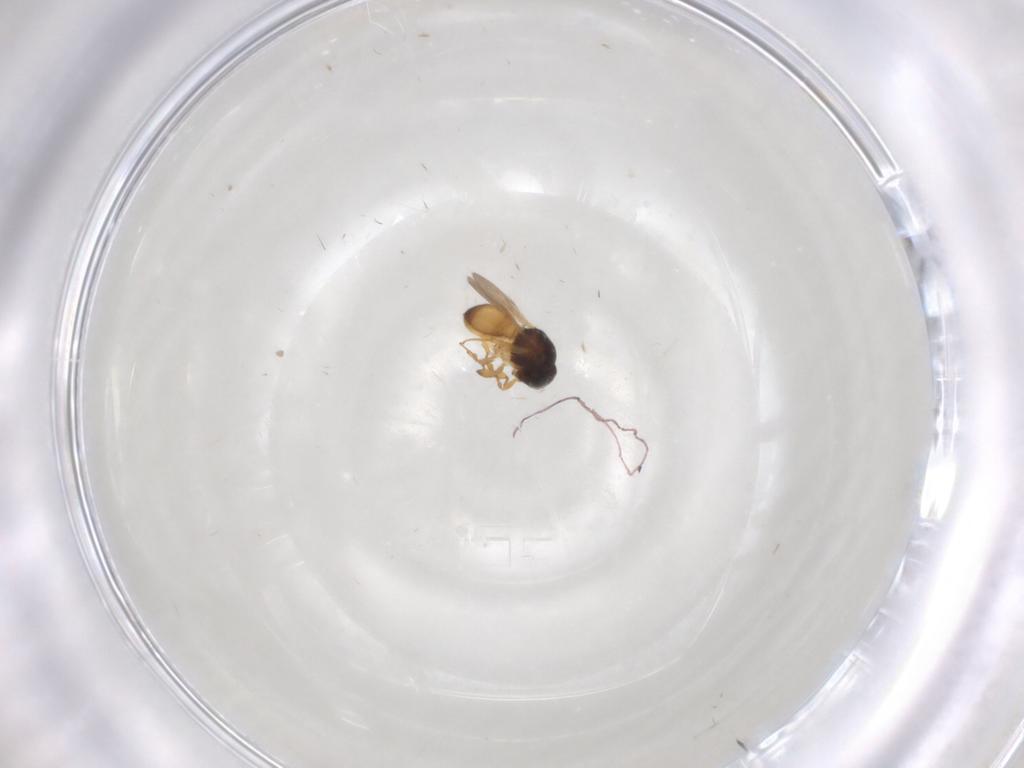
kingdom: Animalia
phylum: Arthropoda
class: Insecta
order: Hymenoptera
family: Scelionidae
